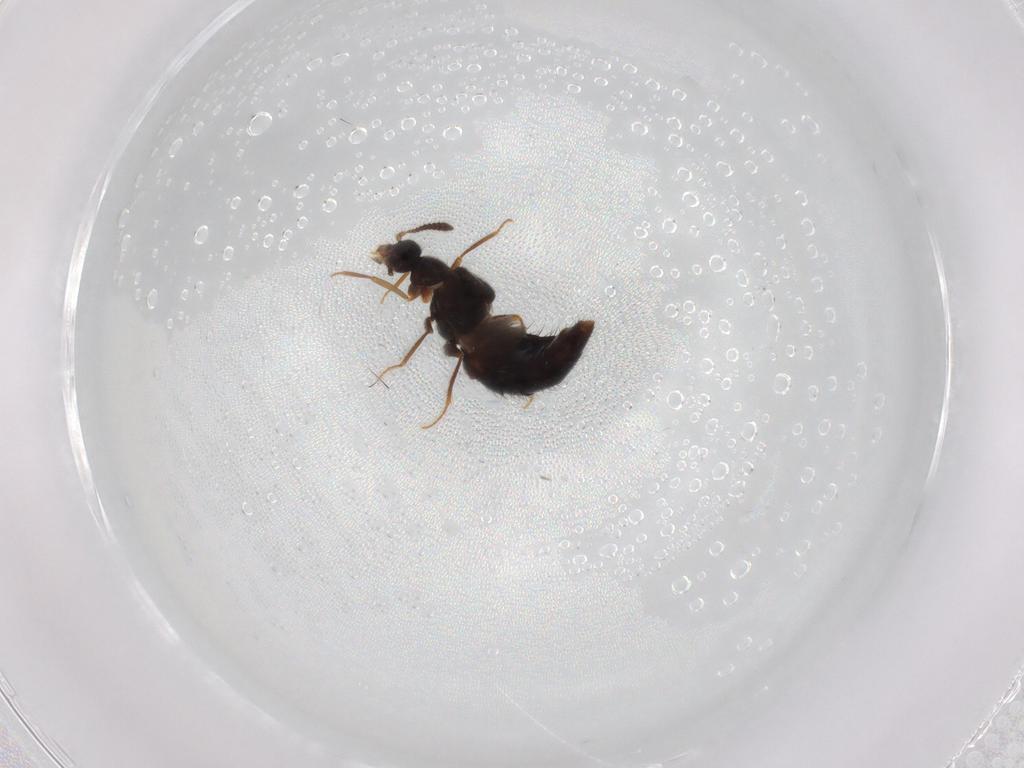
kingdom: Animalia
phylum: Arthropoda
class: Insecta
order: Coleoptera
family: Staphylinidae
